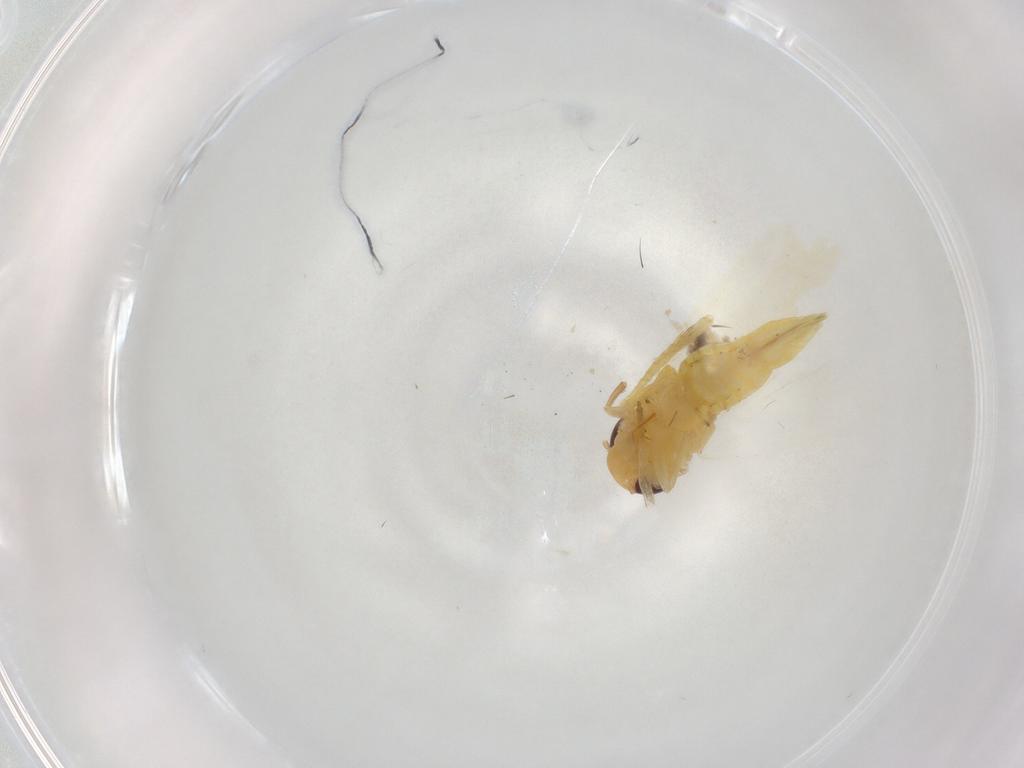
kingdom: Animalia
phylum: Arthropoda
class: Insecta
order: Hemiptera
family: Cicadellidae
